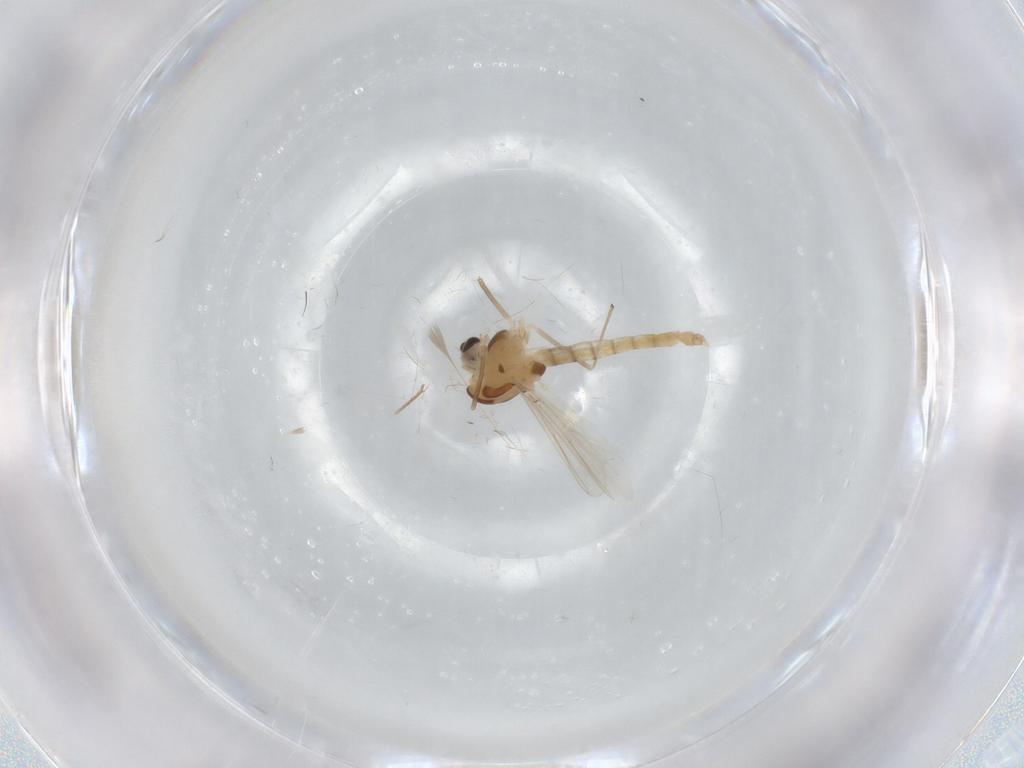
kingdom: Animalia
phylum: Arthropoda
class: Insecta
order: Diptera
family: Chironomidae
